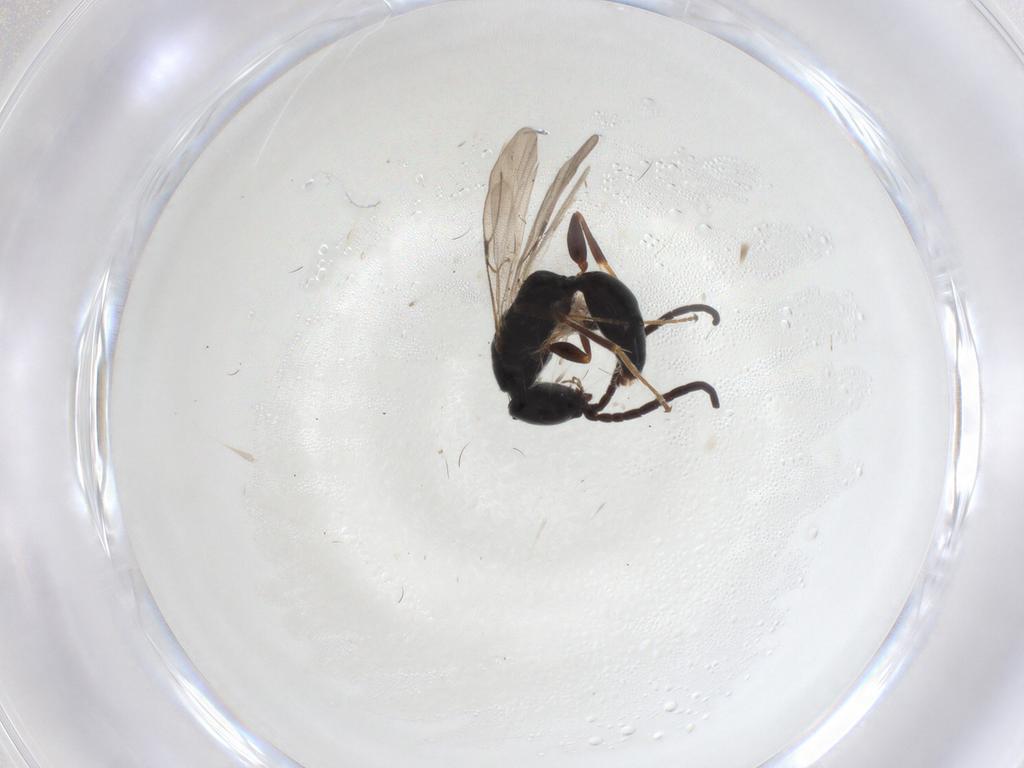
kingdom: Animalia
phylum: Arthropoda
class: Insecta
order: Hymenoptera
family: Bethylidae
